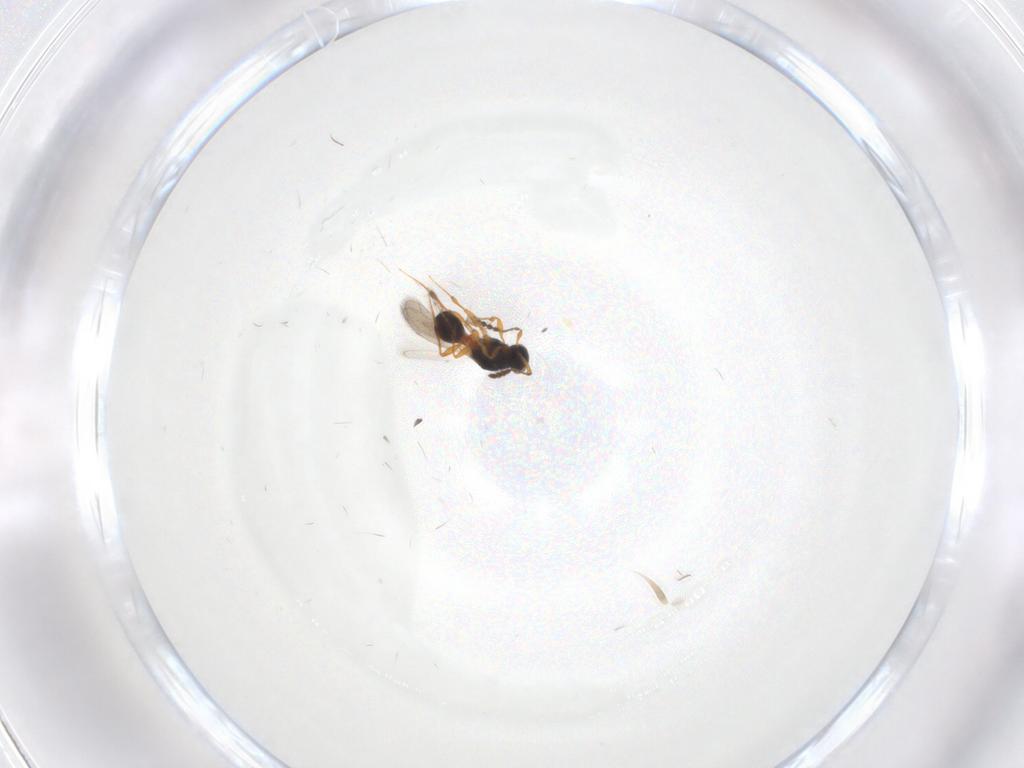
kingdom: Animalia
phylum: Arthropoda
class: Insecta
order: Hymenoptera
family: Platygastridae
